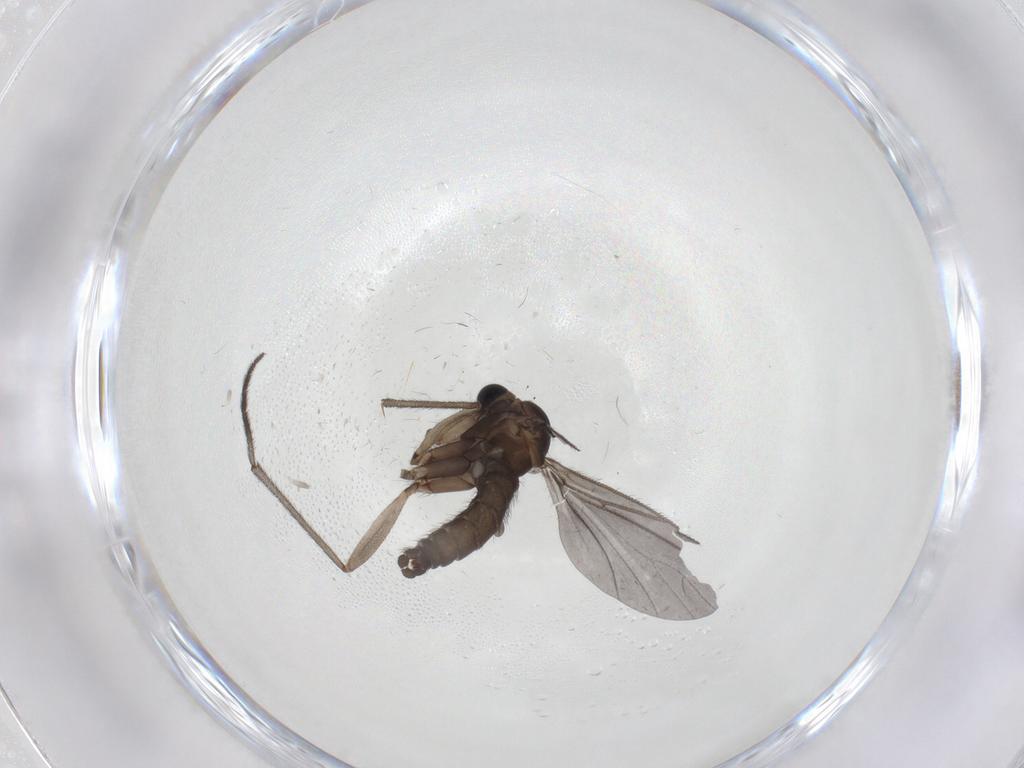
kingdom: Animalia
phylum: Arthropoda
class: Insecta
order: Diptera
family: Sciaridae
